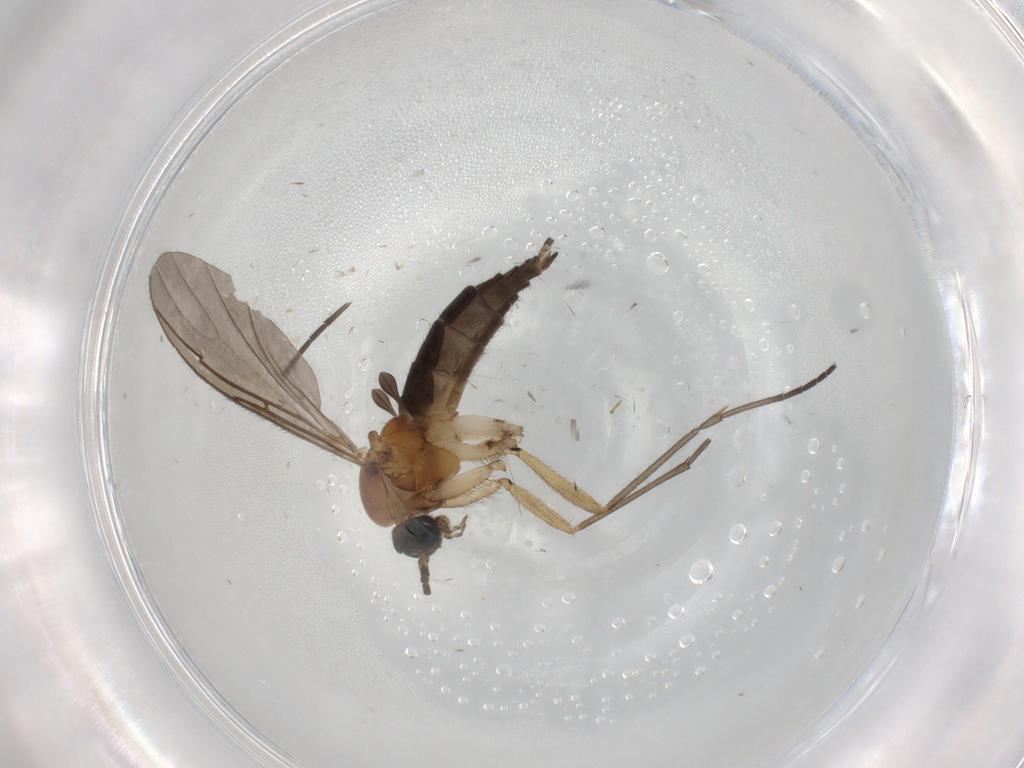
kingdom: Animalia
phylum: Arthropoda
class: Insecta
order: Diptera
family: Sciaridae
